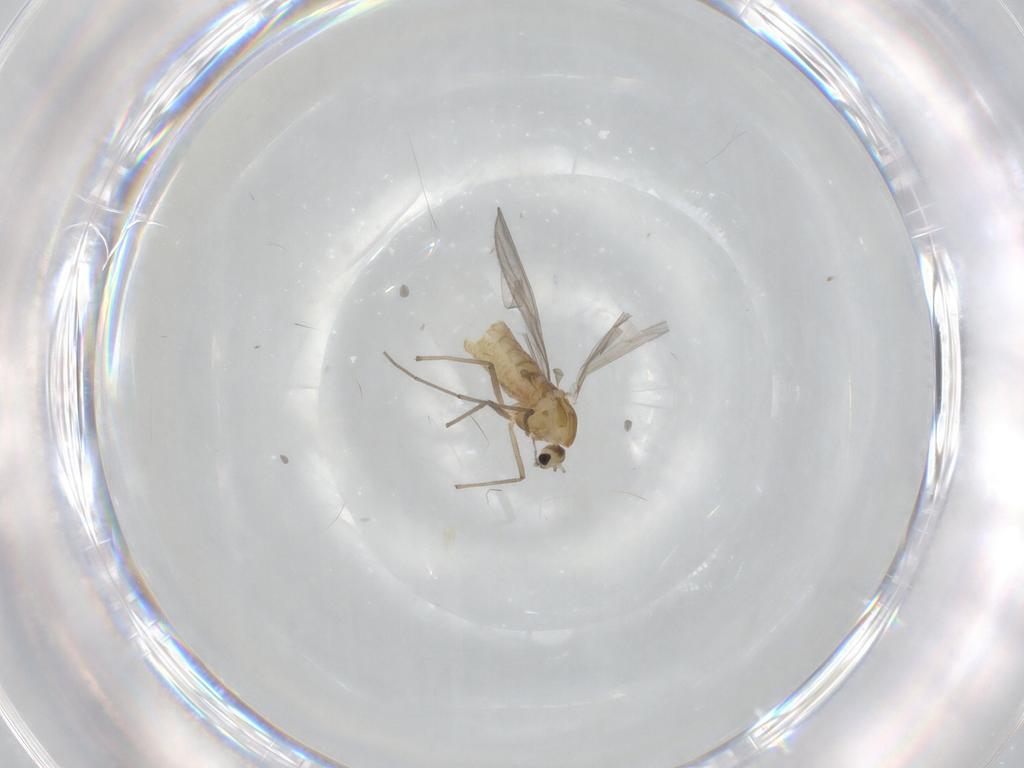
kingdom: Animalia
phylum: Arthropoda
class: Insecta
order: Diptera
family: Chironomidae
